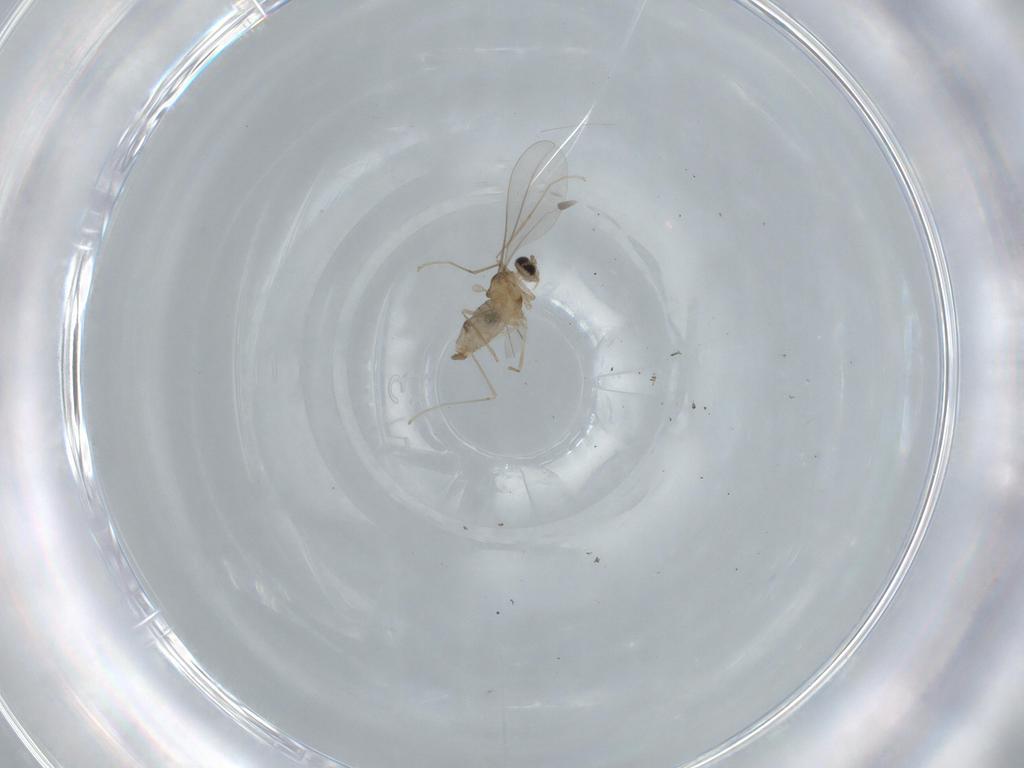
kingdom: Animalia
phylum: Arthropoda
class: Insecta
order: Diptera
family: Cecidomyiidae
